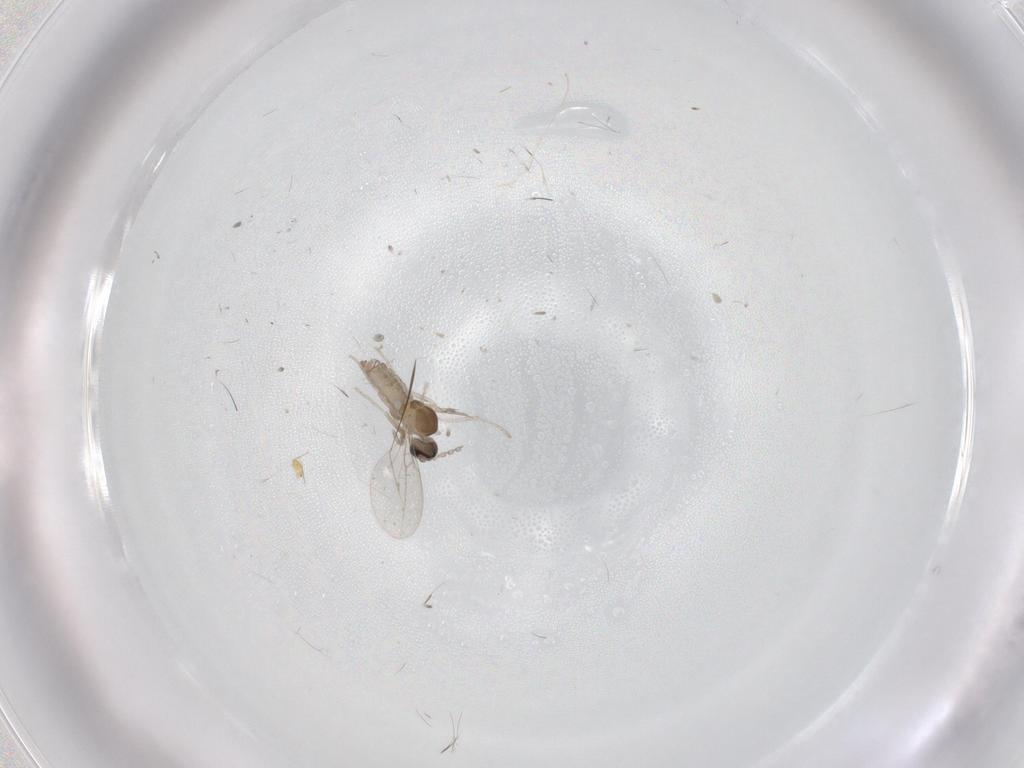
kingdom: Animalia
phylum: Arthropoda
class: Insecta
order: Diptera
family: Cecidomyiidae
